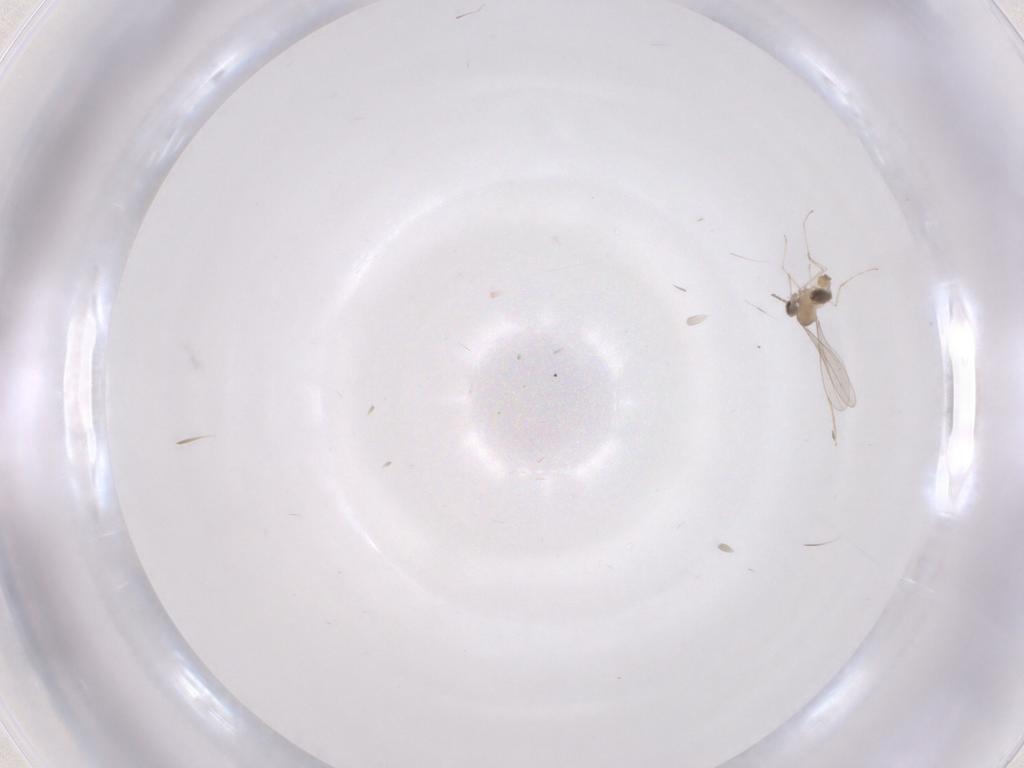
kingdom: Animalia
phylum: Arthropoda
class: Insecta
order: Diptera
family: Cecidomyiidae
